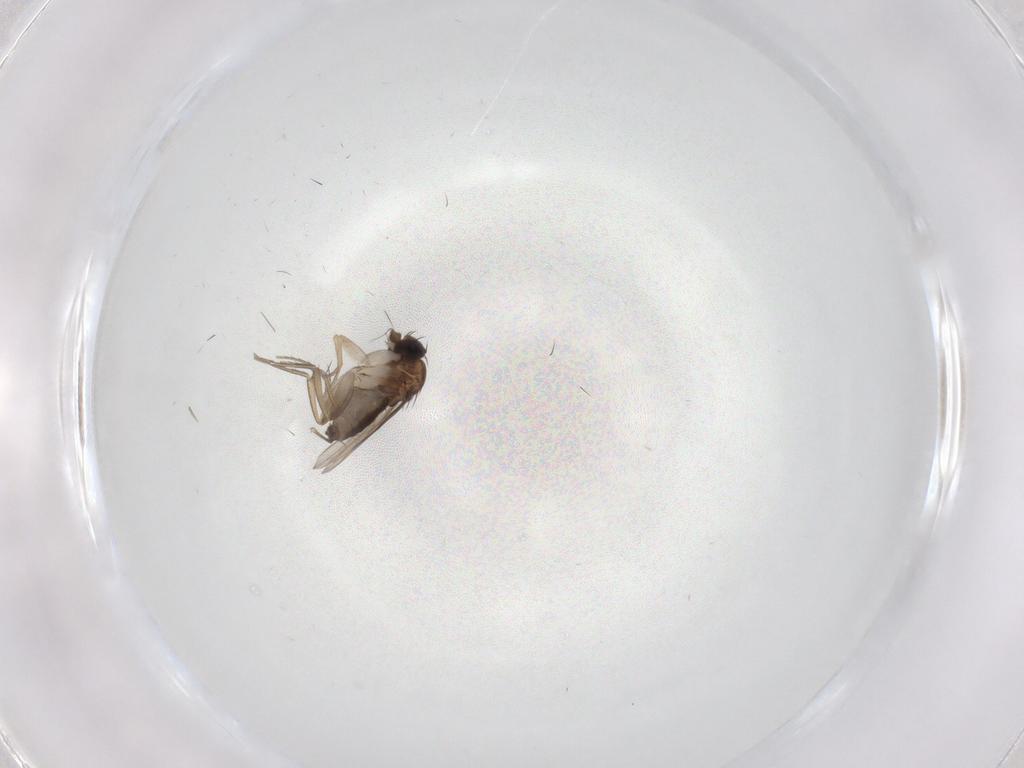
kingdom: Animalia
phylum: Arthropoda
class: Insecta
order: Diptera
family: Phoridae
